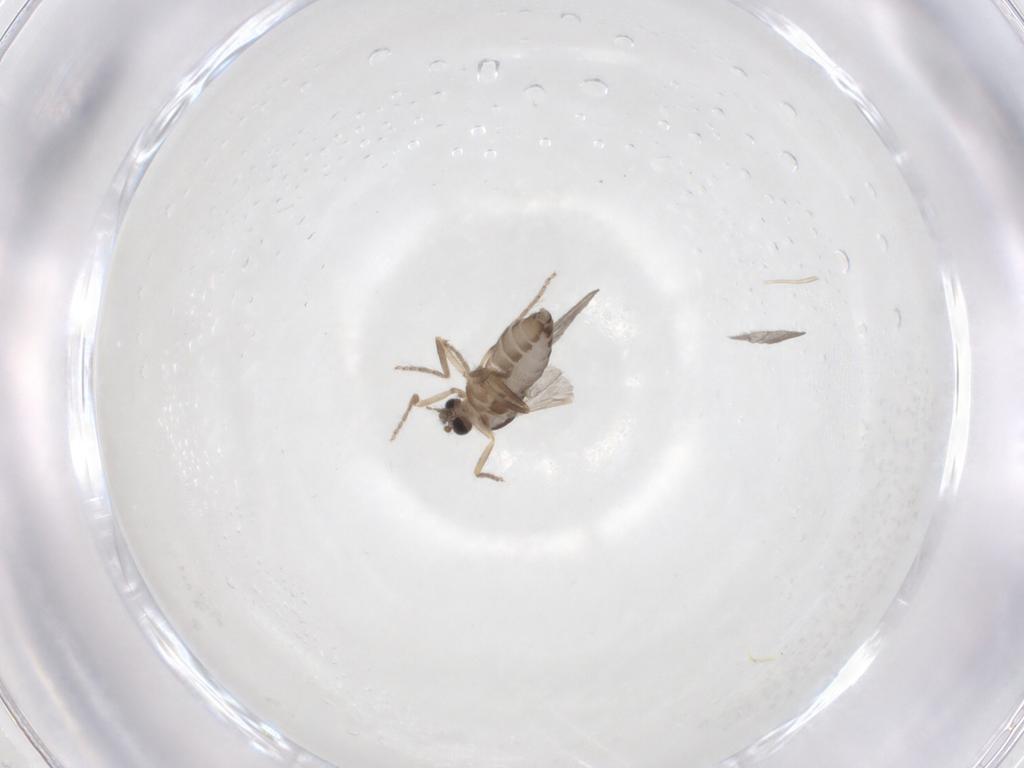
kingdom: Animalia
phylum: Arthropoda
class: Insecta
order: Diptera
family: Ceratopogonidae
